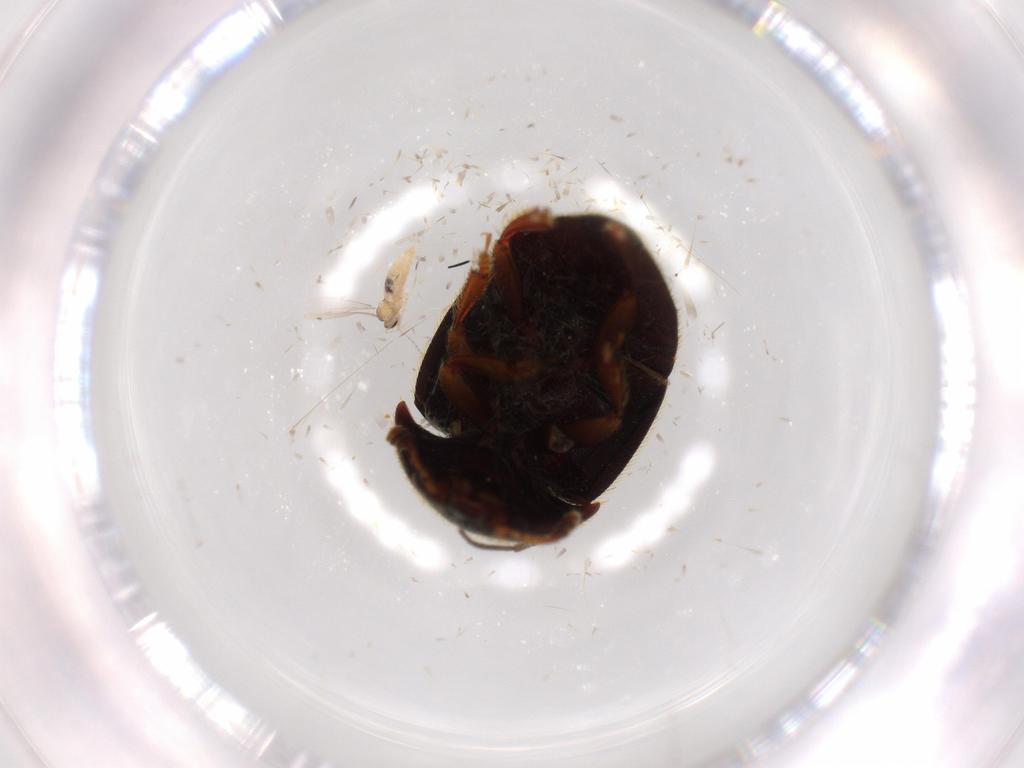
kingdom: Animalia
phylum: Arthropoda
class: Insecta
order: Coleoptera
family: Nitidulidae
